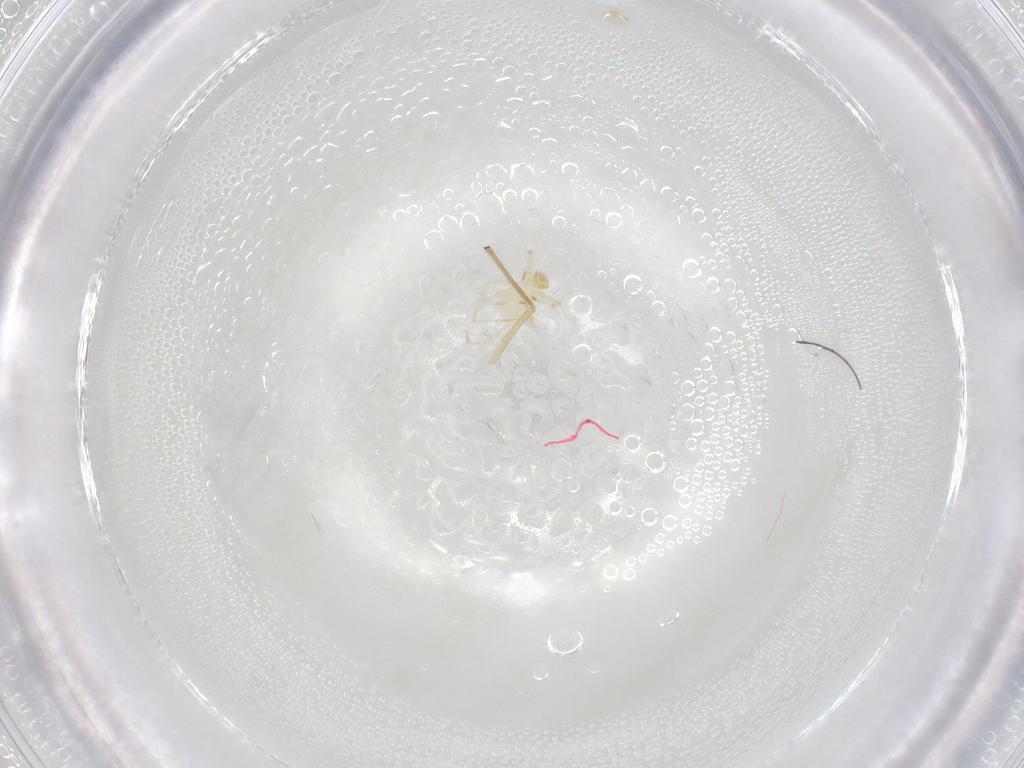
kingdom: Animalia
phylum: Arthropoda
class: Arachnida
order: Trombidiformes
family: Erythraeidae
